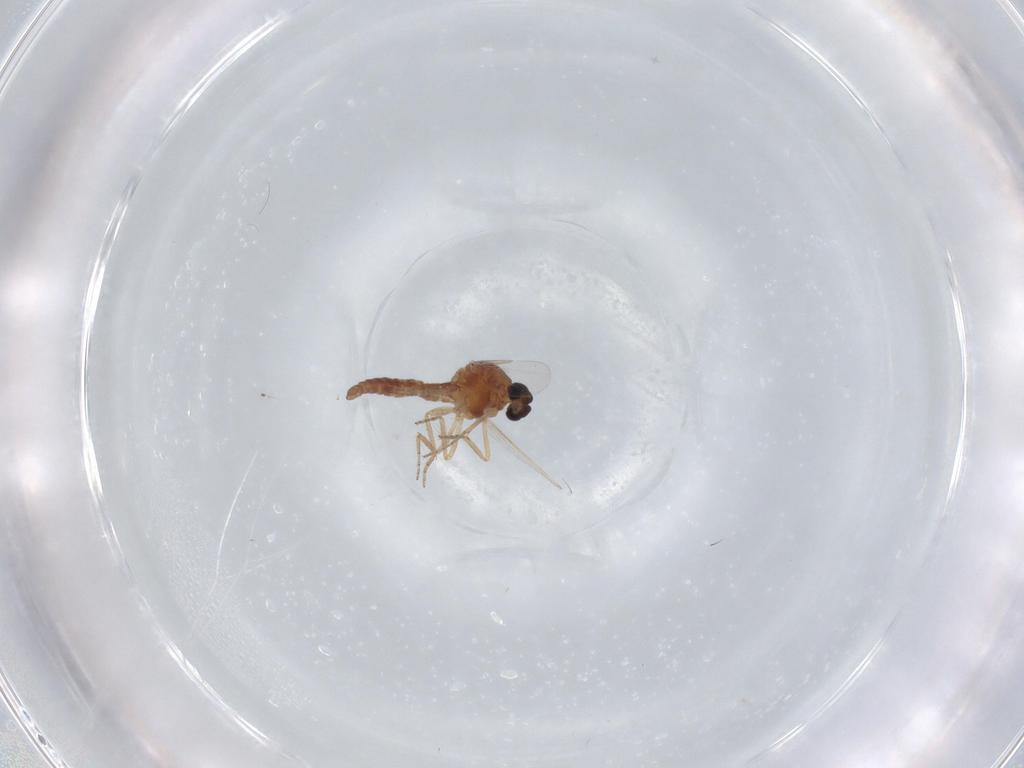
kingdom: Animalia
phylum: Arthropoda
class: Insecta
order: Diptera
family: Ceratopogonidae
